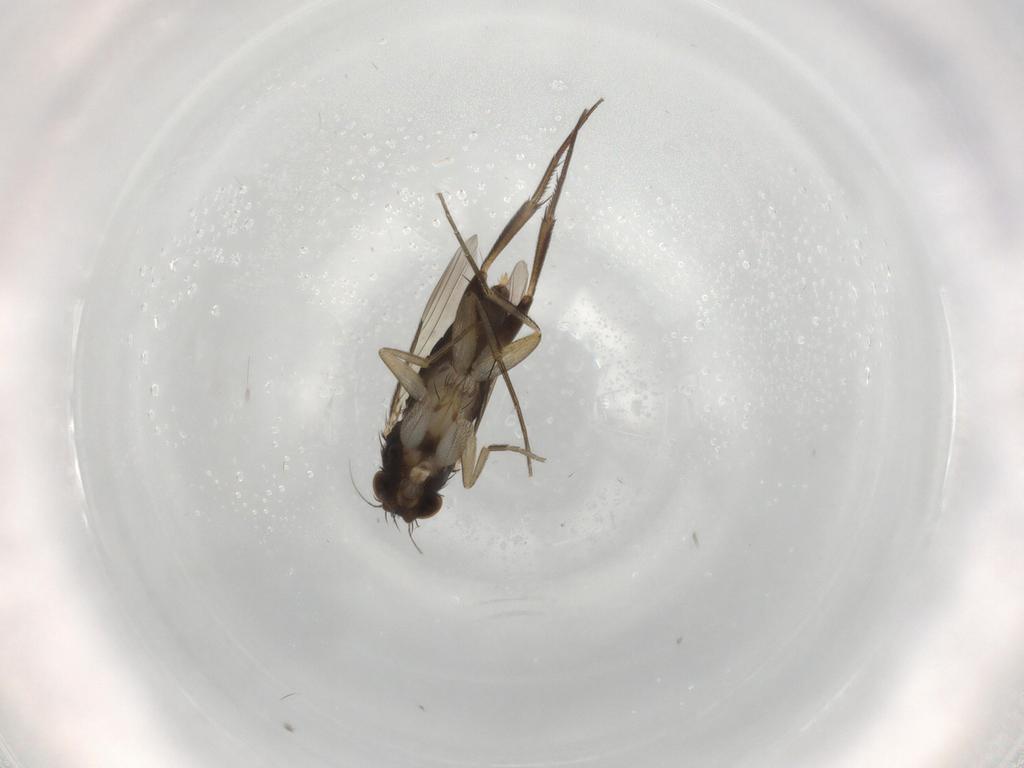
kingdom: Animalia
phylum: Arthropoda
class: Insecta
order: Diptera
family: Phoridae
